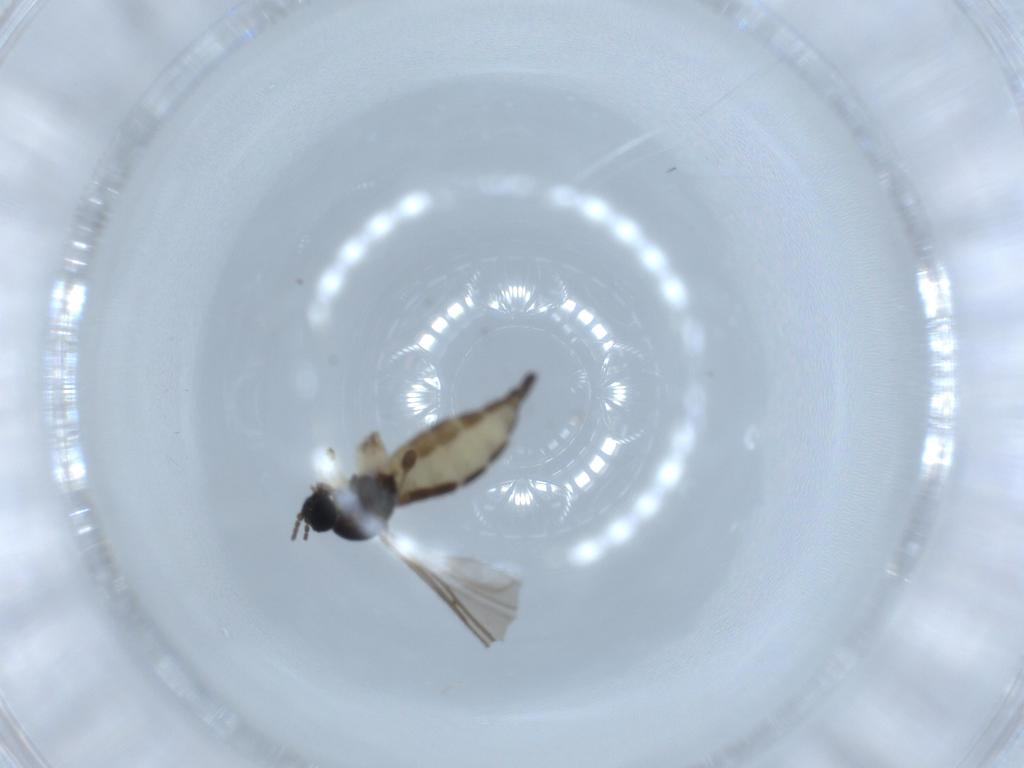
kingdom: Animalia
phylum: Arthropoda
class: Insecta
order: Diptera
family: Sciaridae
